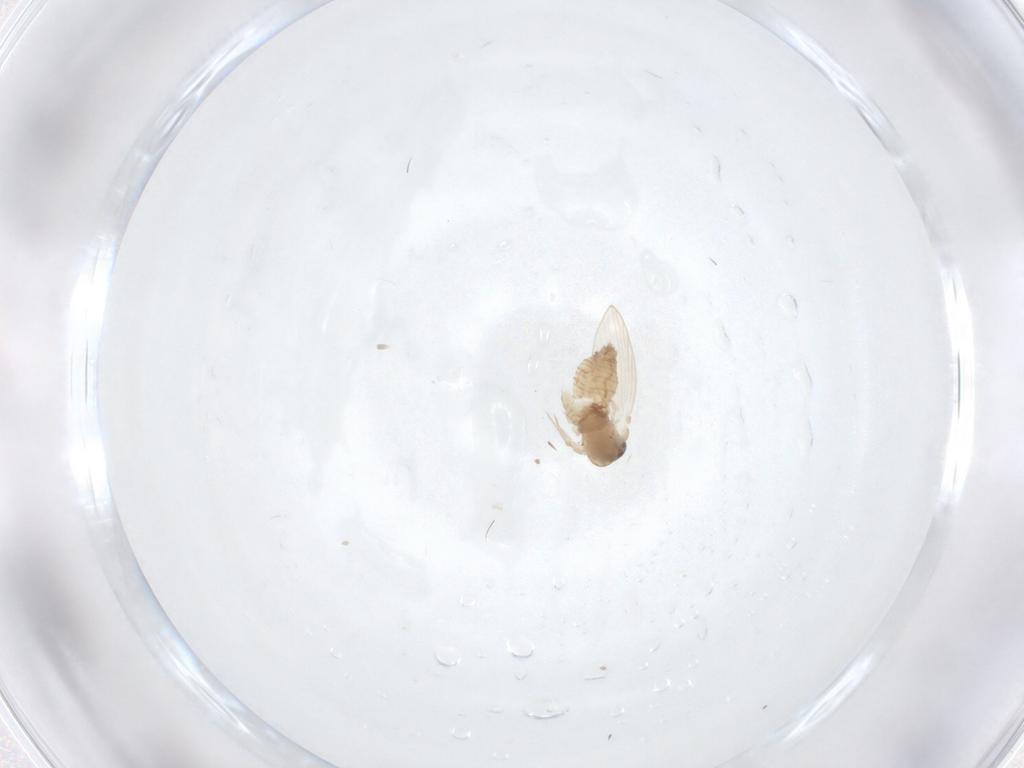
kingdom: Animalia
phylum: Arthropoda
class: Insecta
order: Diptera
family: Psychodidae
